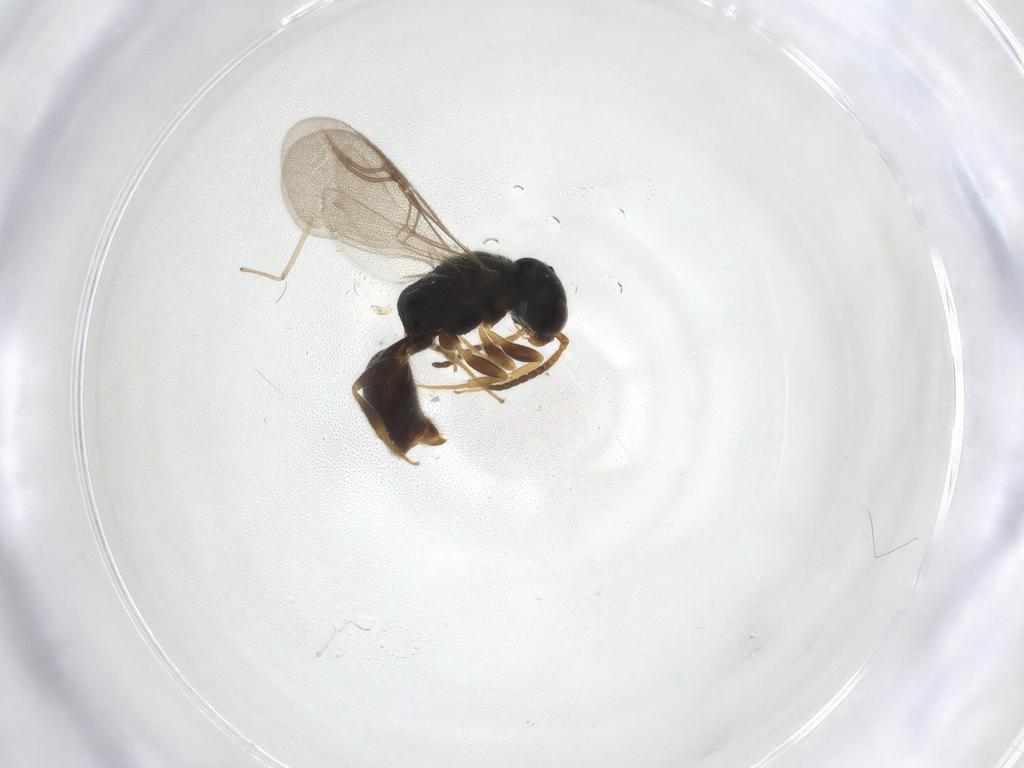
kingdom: Animalia
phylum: Arthropoda
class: Insecta
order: Hymenoptera
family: Bethylidae
